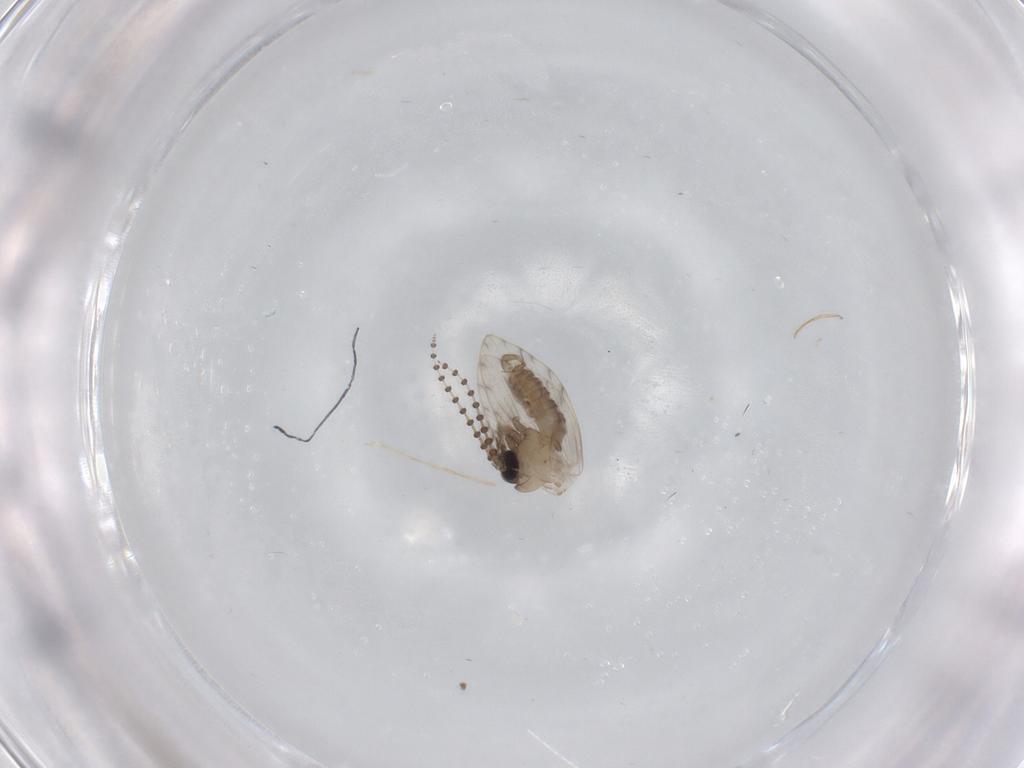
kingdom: Animalia
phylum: Arthropoda
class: Insecta
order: Diptera
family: Psychodidae
